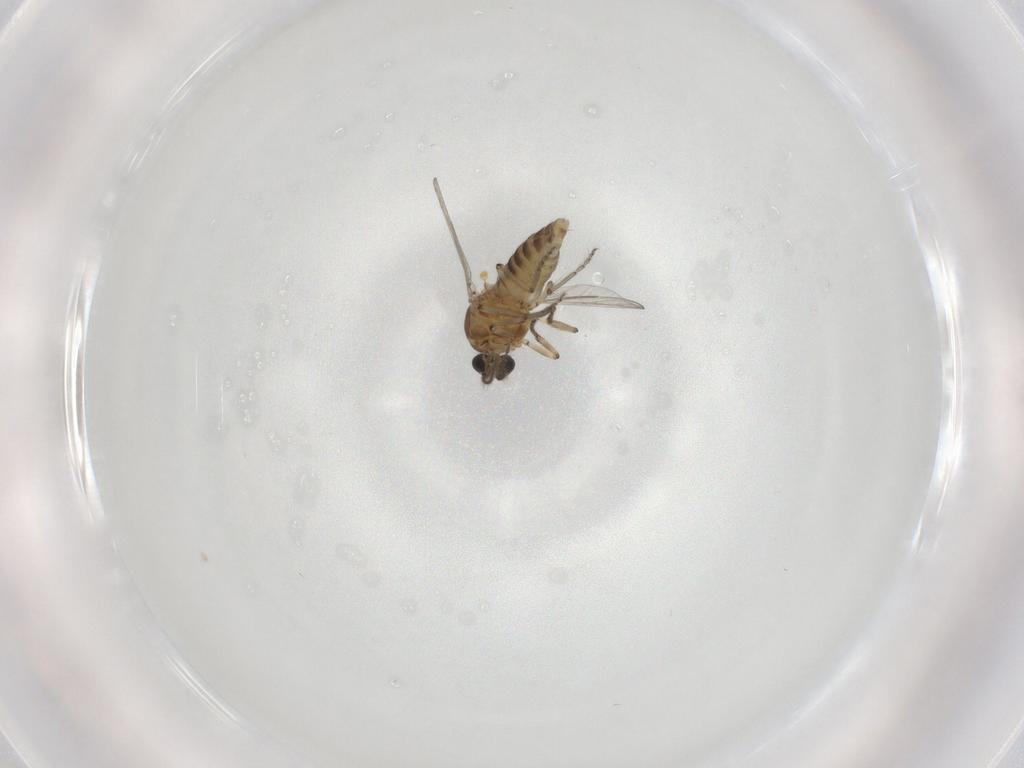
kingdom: Animalia
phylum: Arthropoda
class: Insecta
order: Diptera
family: Ceratopogonidae
